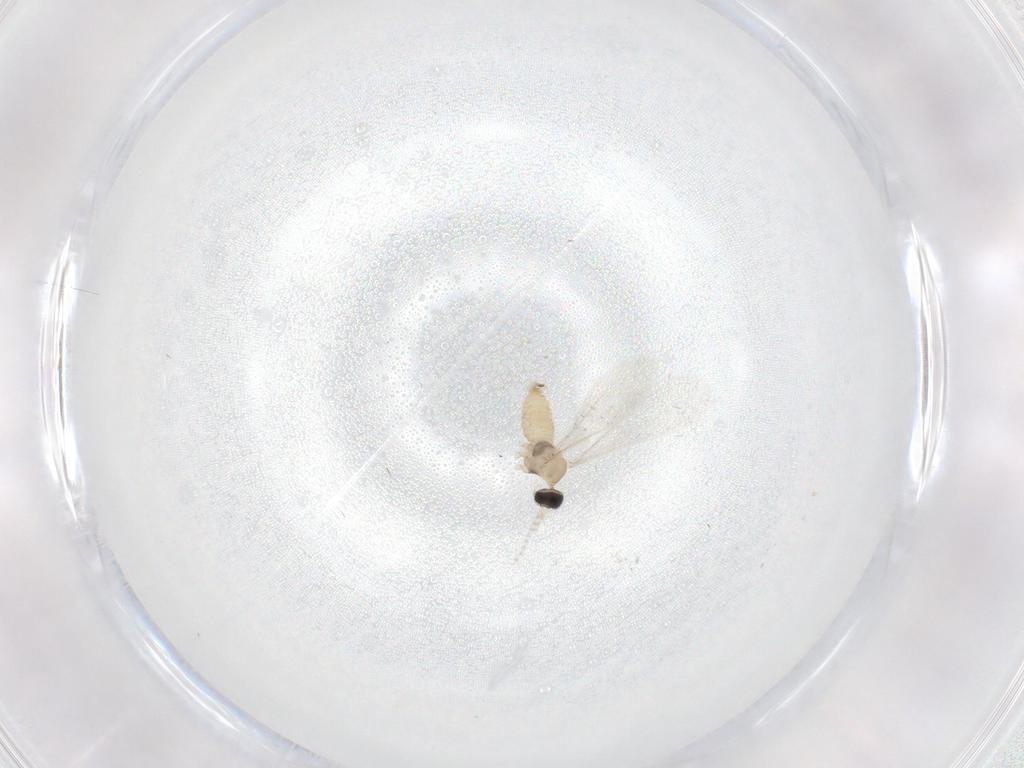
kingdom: Animalia
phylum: Arthropoda
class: Insecta
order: Diptera
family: Cecidomyiidae
